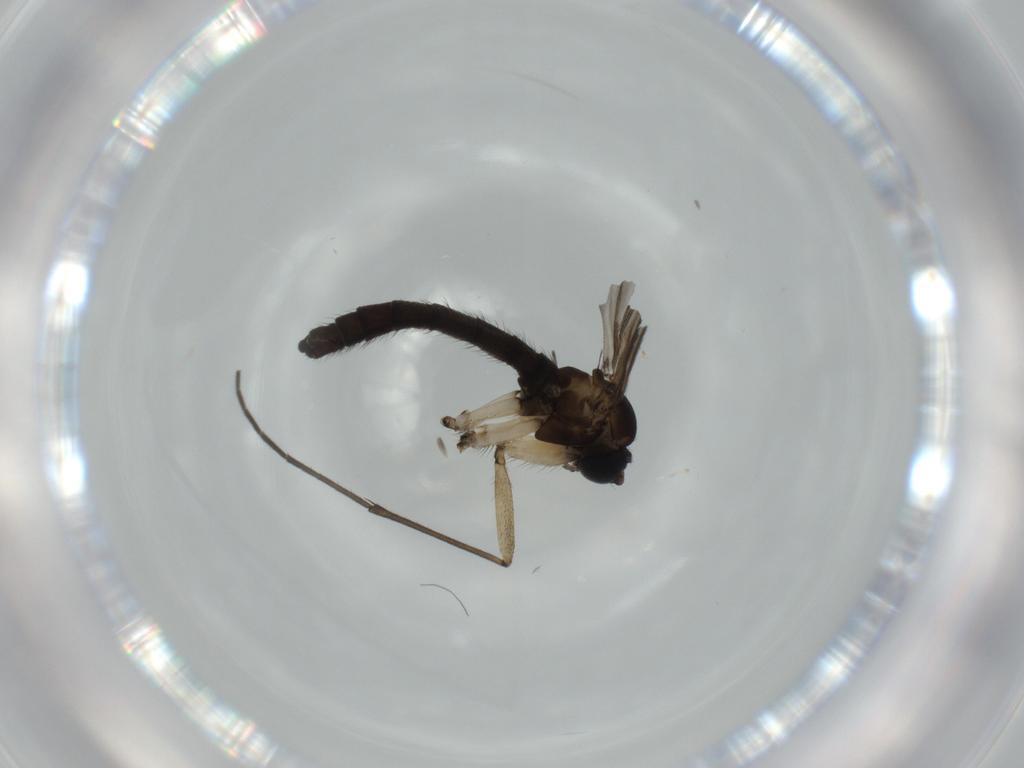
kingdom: Animalia
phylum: Arthropoda
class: Insecta
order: Diptera
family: Sciaridae
